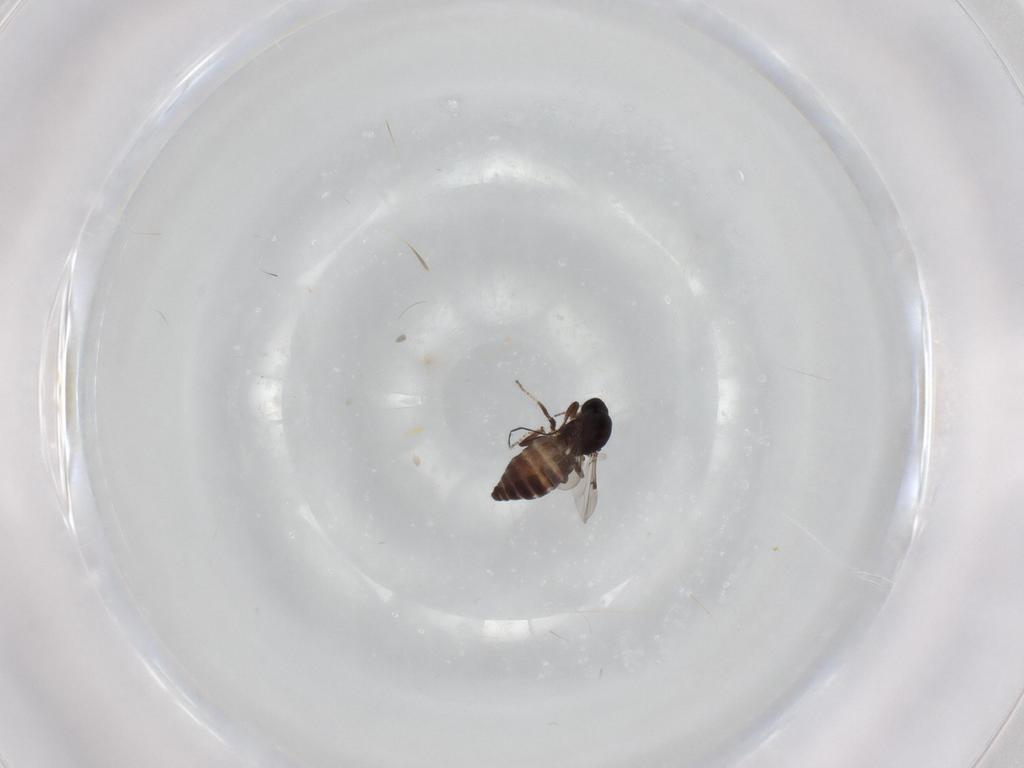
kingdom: Animalia
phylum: Arthropoda
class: Insecta
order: Diptera
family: Ceratopogonidae
